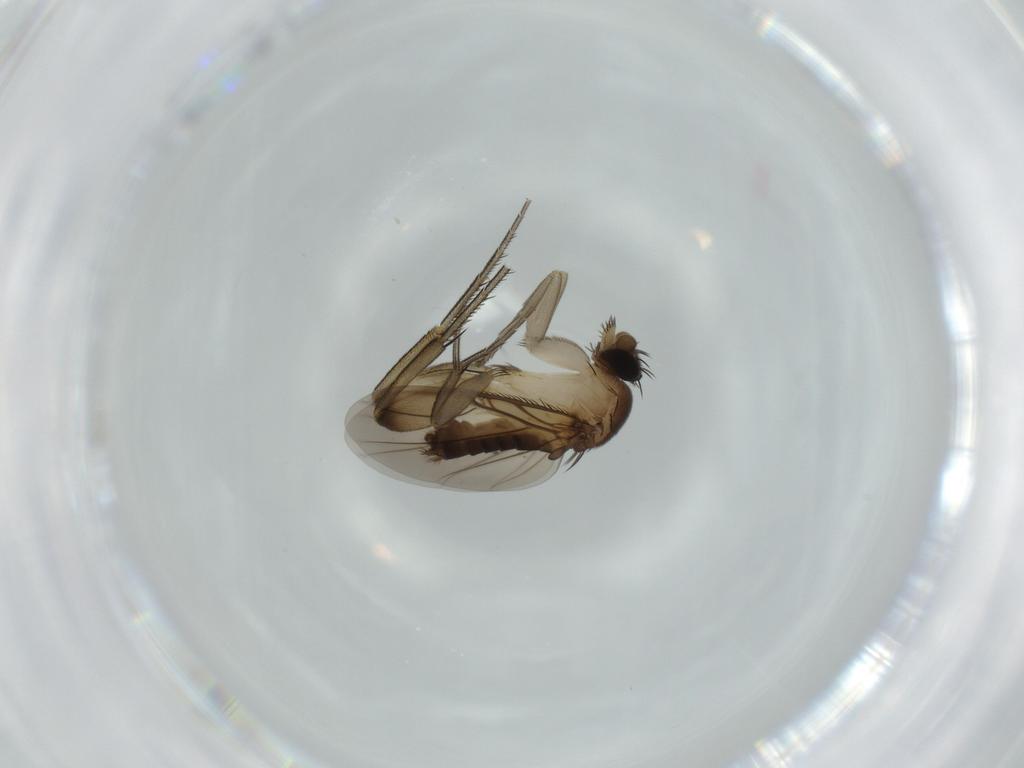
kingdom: Animalia
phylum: Arthropoda
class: Insecta
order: Diptera
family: Phoridae
